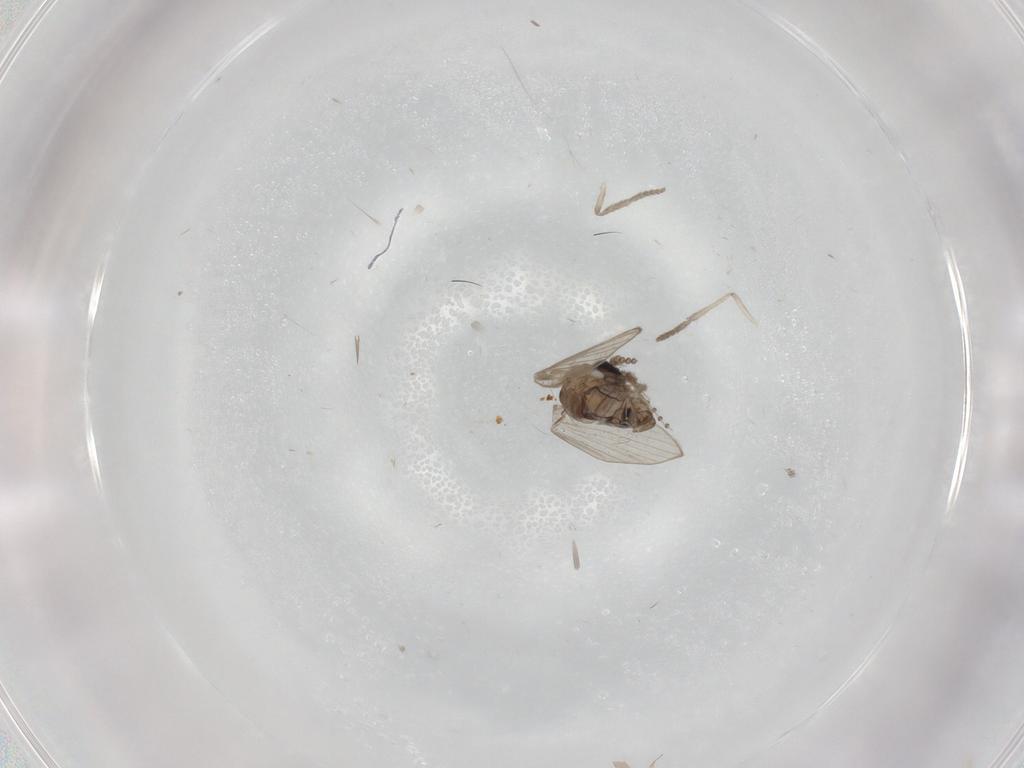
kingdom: Animalia
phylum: Arthropoda
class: Insecta
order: Diptera
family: Psychodidae
